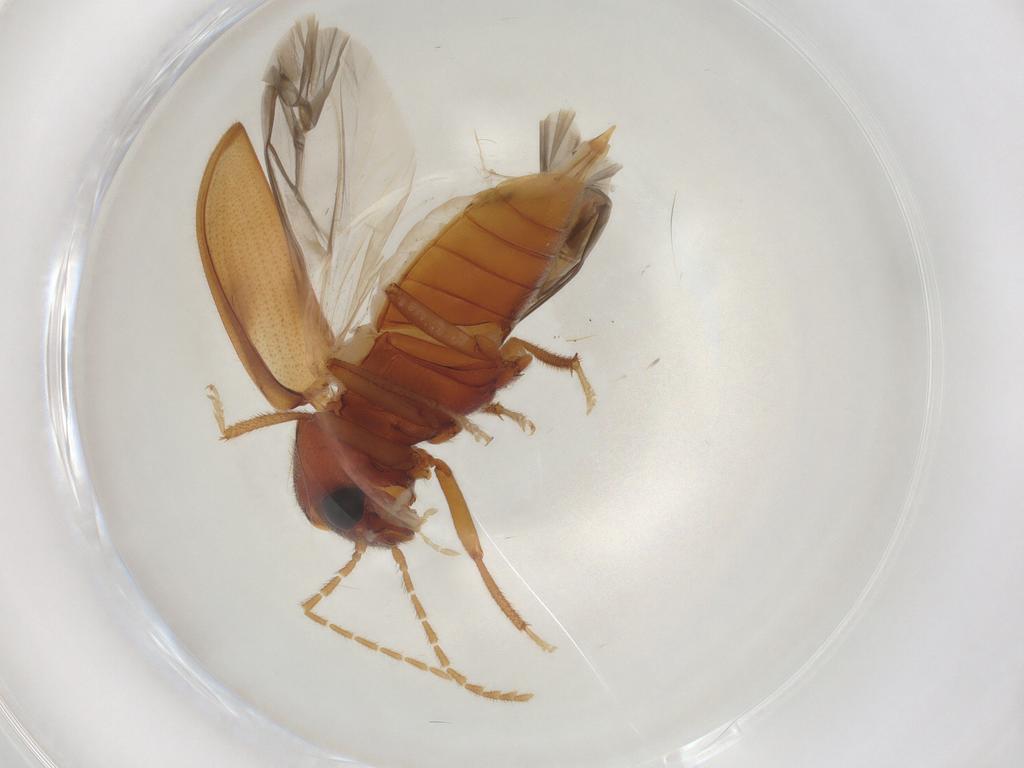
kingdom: Animalia
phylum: Arthropoda
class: Insecta
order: Coleoptera
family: Ptilodactylidae
